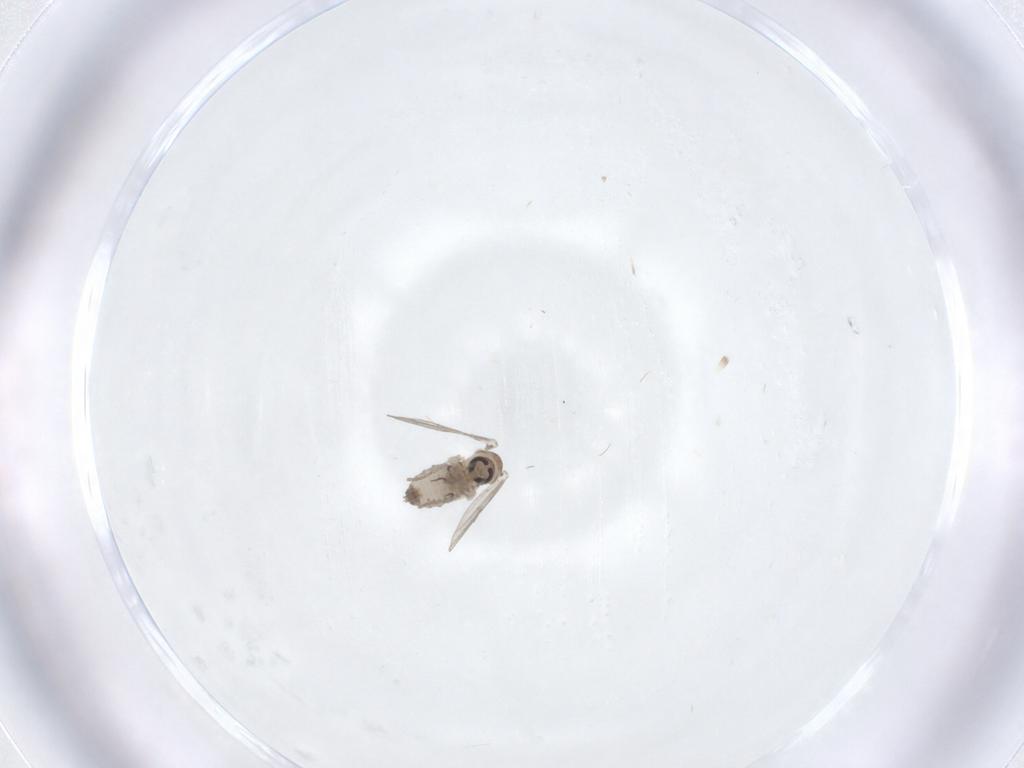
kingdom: Animalia
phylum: Arthropoda
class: Insecta
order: Diptera
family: Psychodidae
